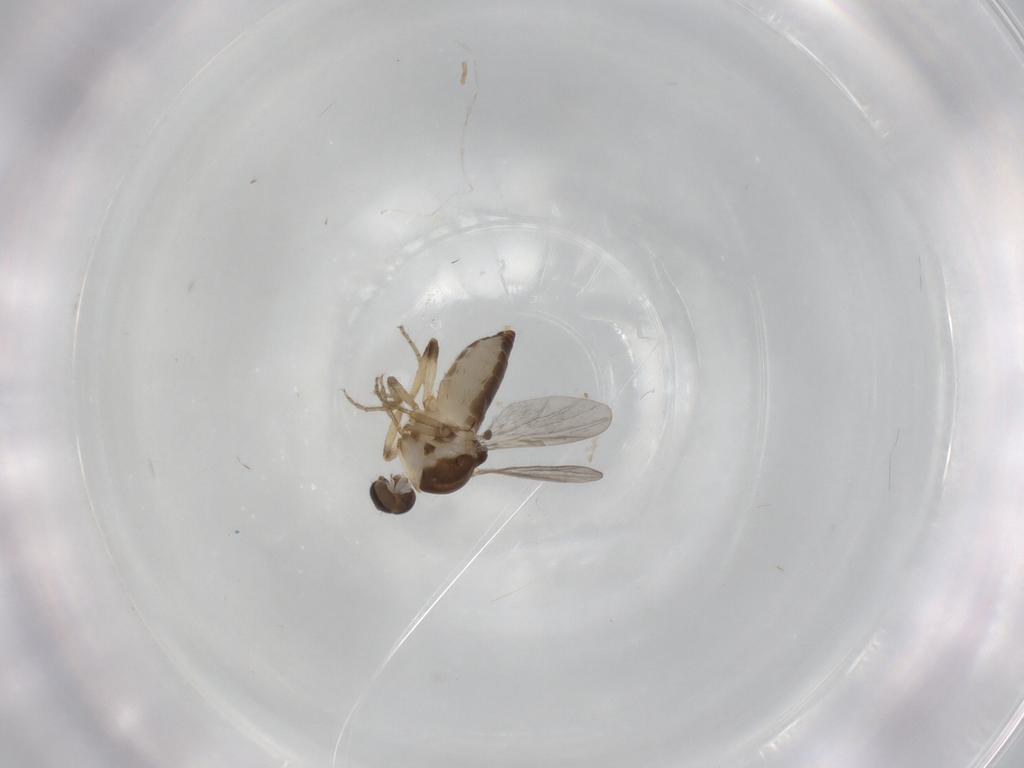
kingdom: Animalia
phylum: Arthropoda
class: Insecta
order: Diptera
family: Ceratopogonidae
